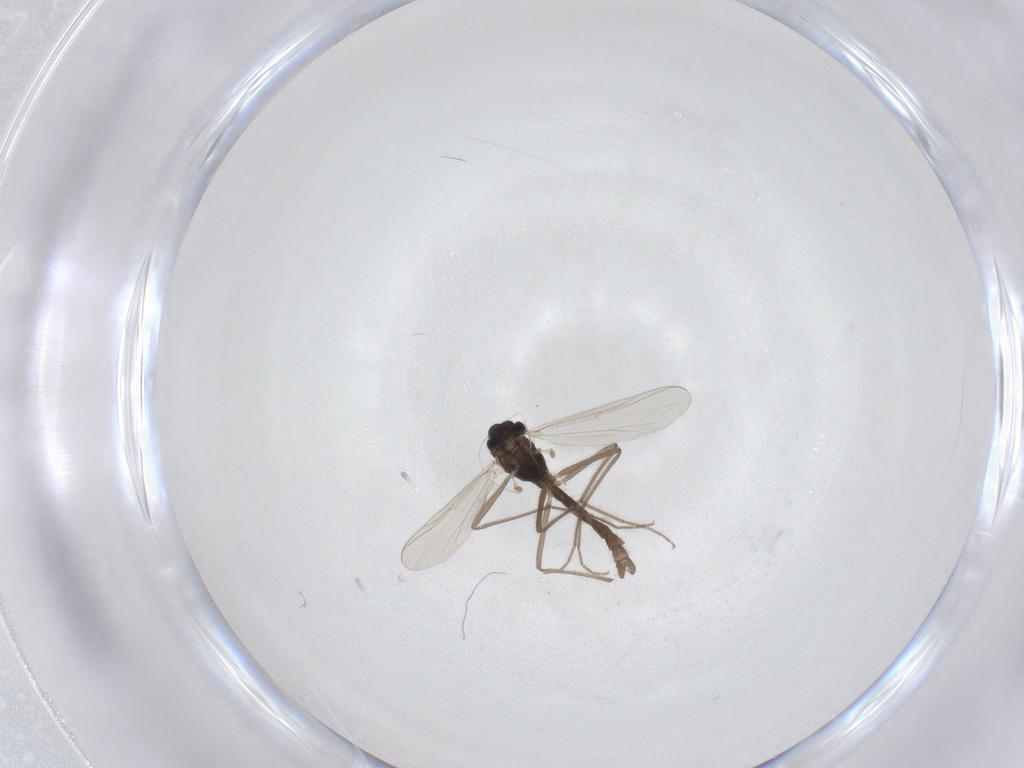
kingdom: Animalia
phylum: Arthropoda
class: Insecta
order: Diptera
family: Chironomidae
